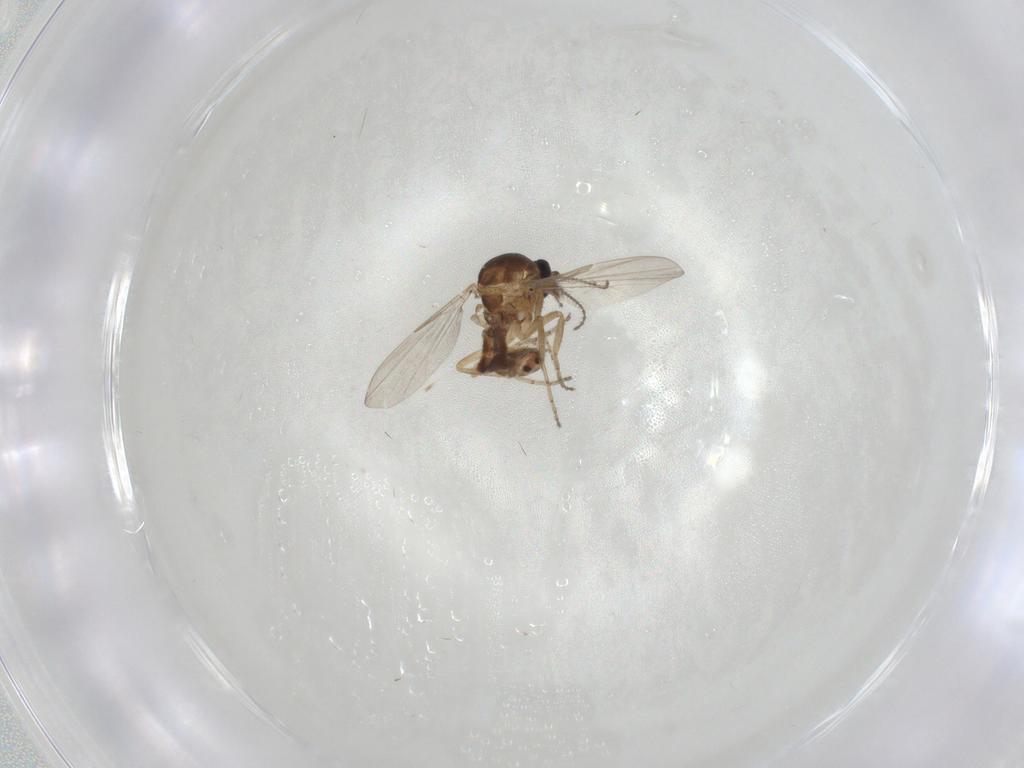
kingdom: Animalia
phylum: Arthropoda
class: Insecta
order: Diptera
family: Ceratopogonidae
